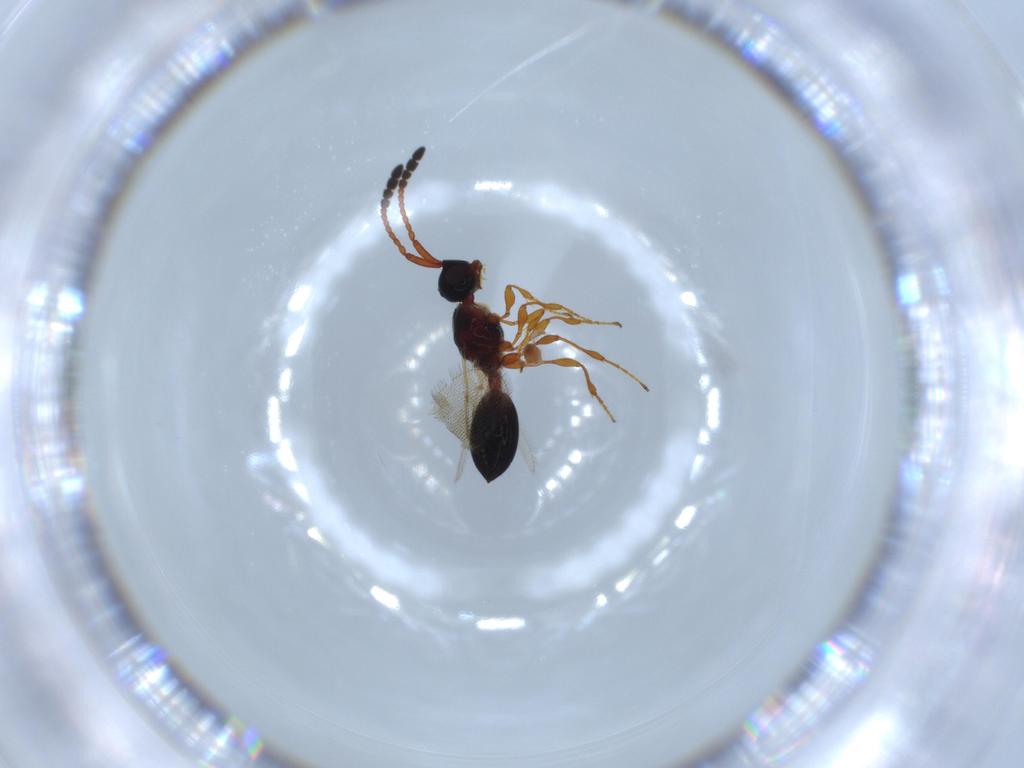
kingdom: Animalia
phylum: Arthropoda
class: Insecta
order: Hymenoptera
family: Diapriidae
